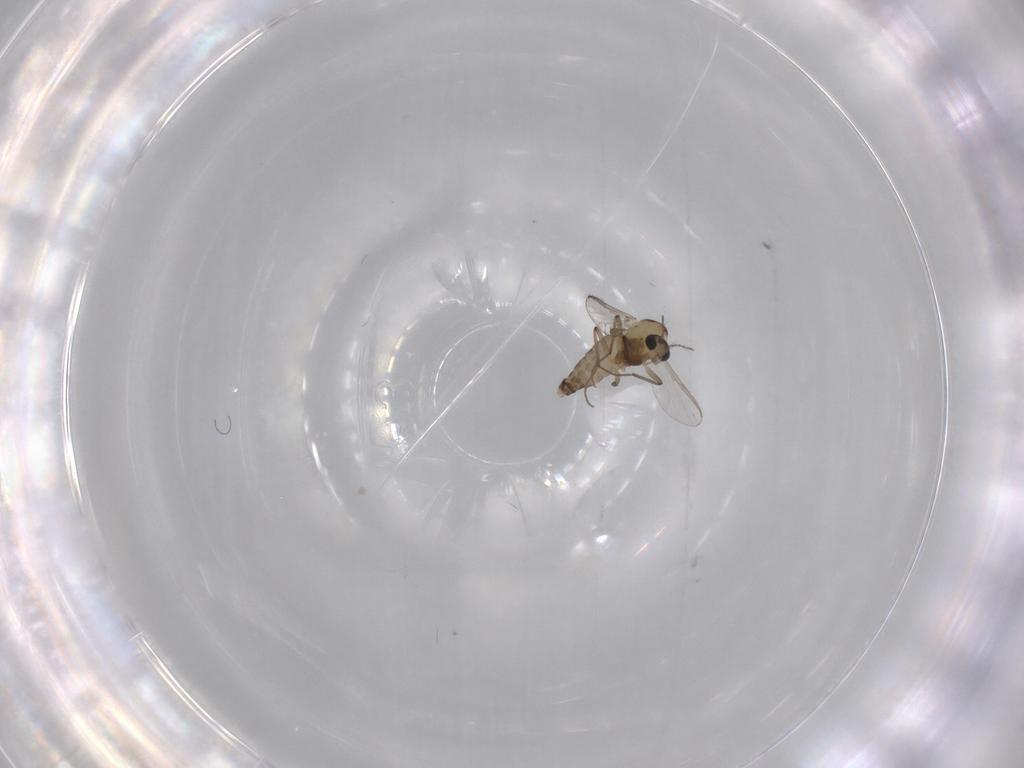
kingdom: Animalia
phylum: Arthropoda
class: Insecta
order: Diptera
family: Chironomidae
